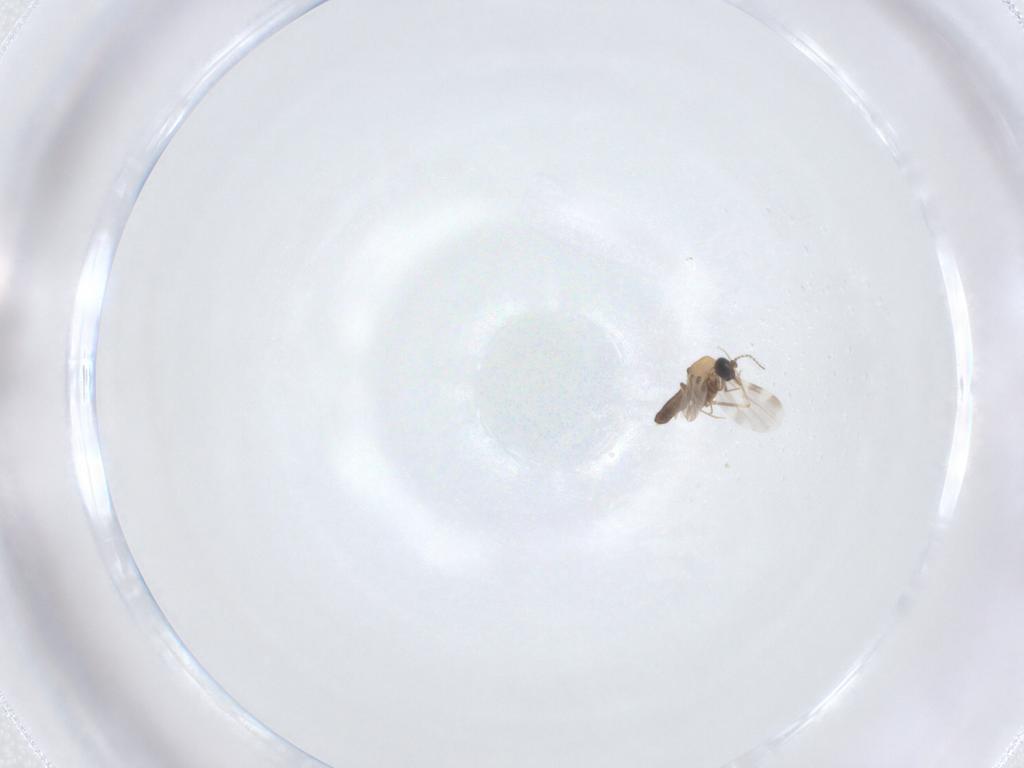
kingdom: Animalia
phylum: Arthropoda
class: Insecta
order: Diptera
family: Ceratopogonidae
